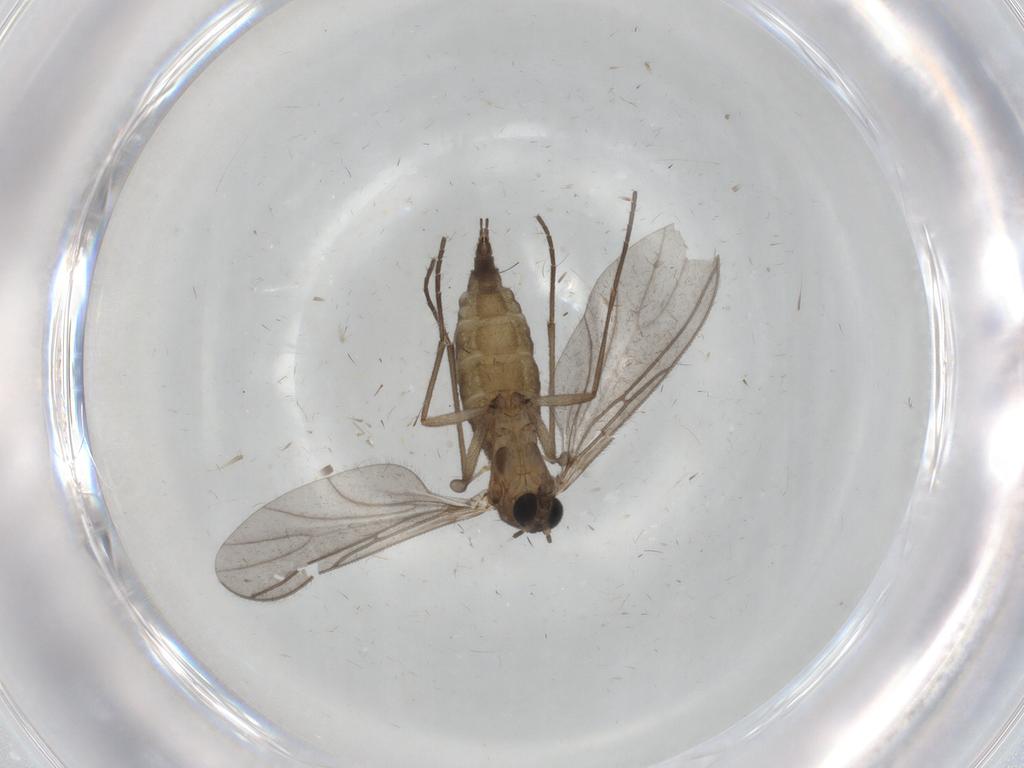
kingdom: Animalia
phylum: Arthropoda
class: Insecta
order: Diptera
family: Chironomidae
